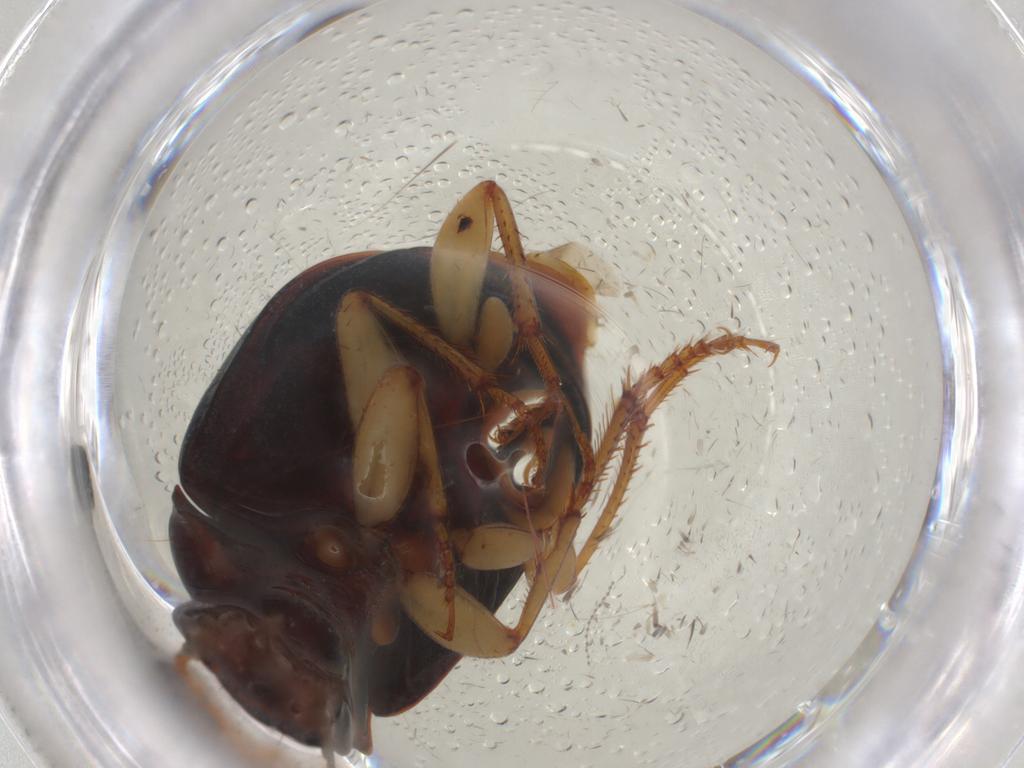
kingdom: Animalia
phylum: Arthropoda
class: Insecta
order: Coleoptera
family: Carabidae
